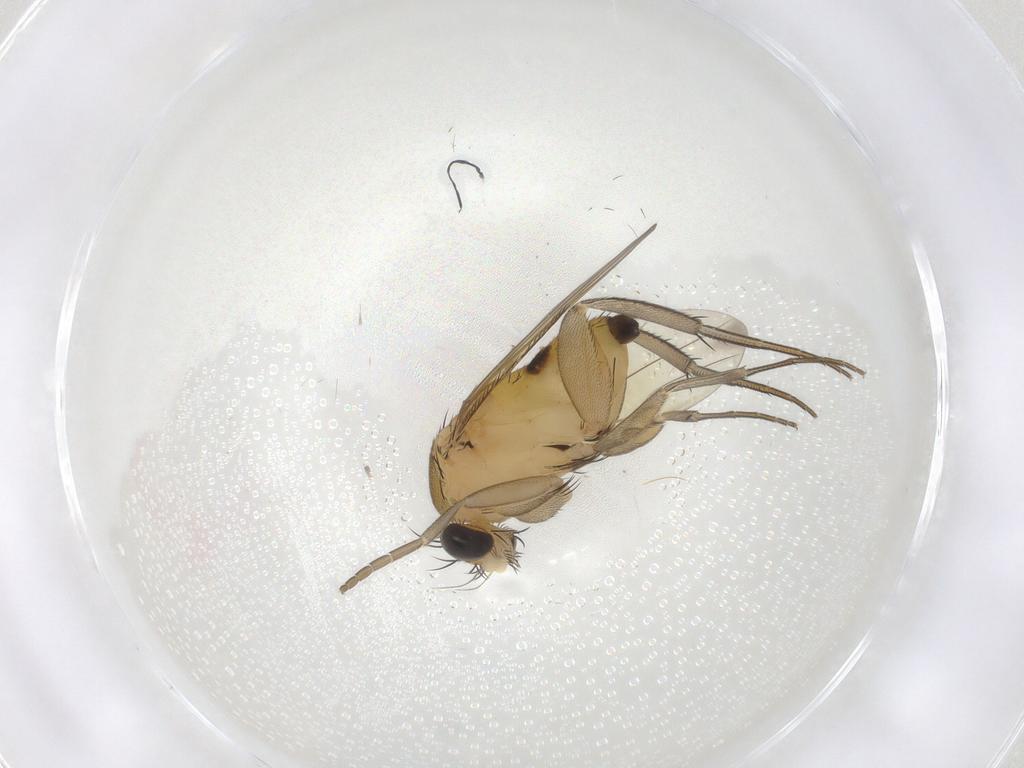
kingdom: Animalia
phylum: Arthropoda
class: Insecta
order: Diptera
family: Phoridae
